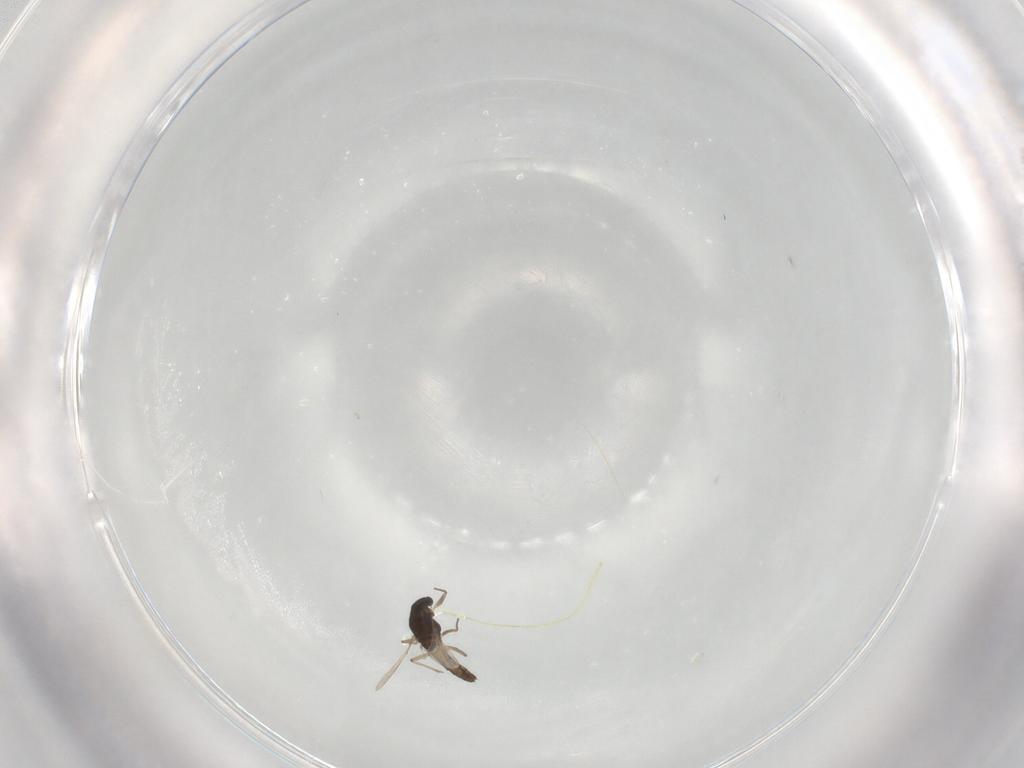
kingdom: Animalia
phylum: Arthropoda
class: Insecta
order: Diptera
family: Chironomidae
